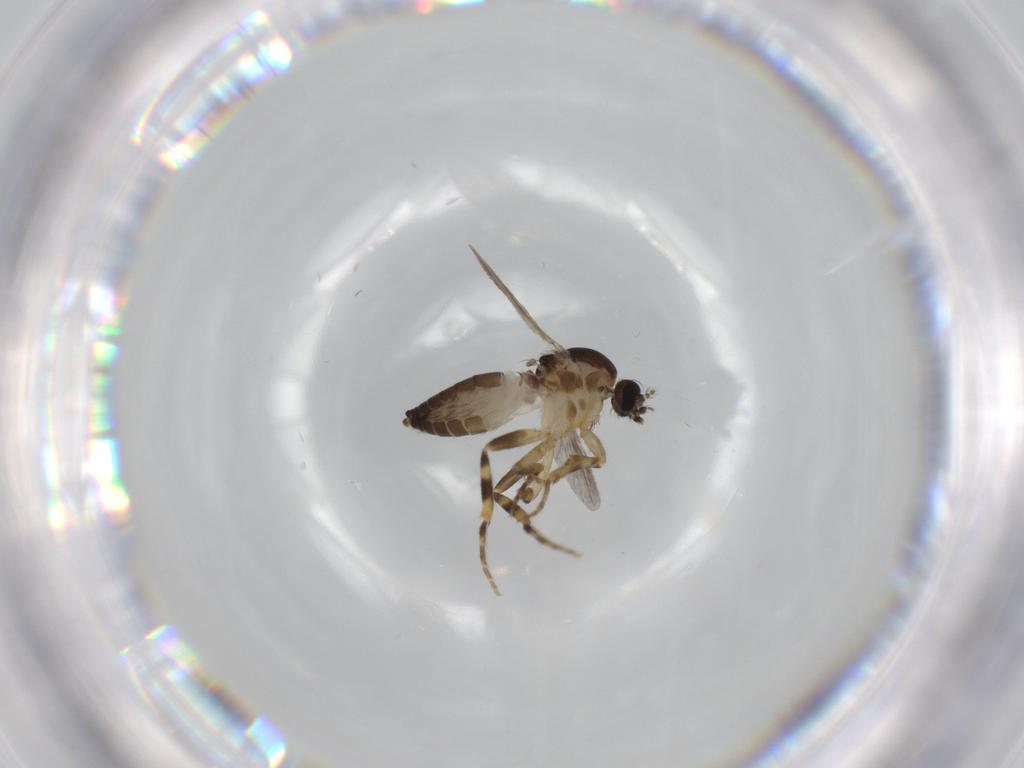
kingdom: Animalia
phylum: Arthropoda
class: Insecta
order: Diptera
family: Ceratopogonidae
